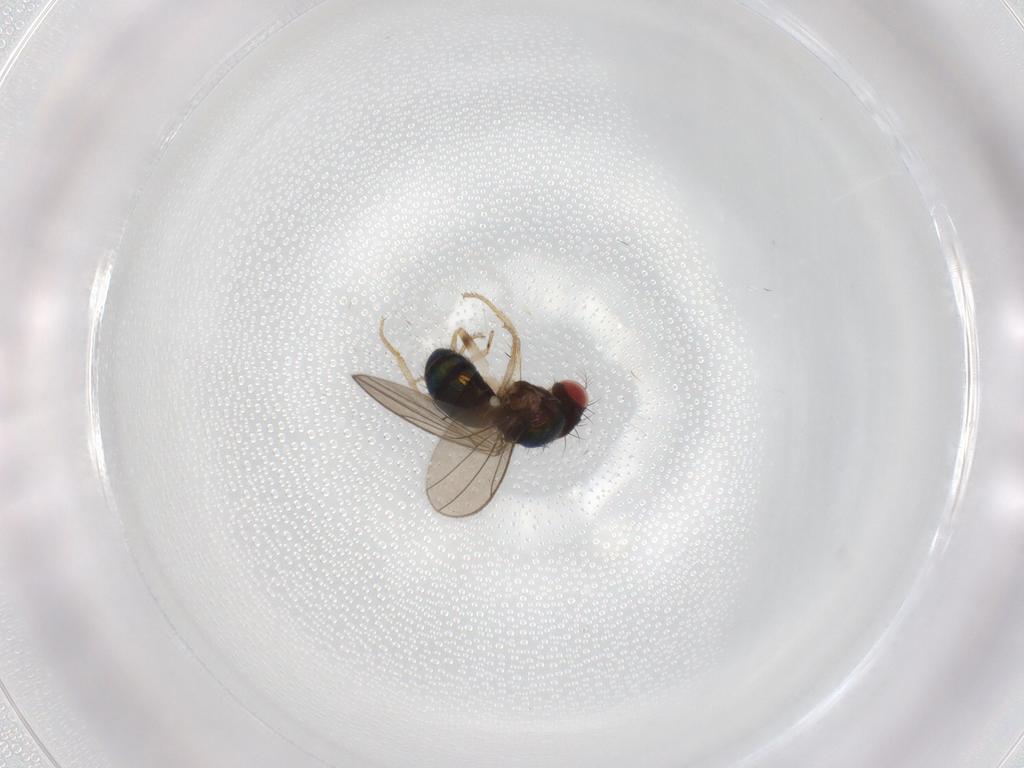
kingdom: Animalia
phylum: Arthropoda
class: Insecta
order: Diptera
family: Drosophilidae
